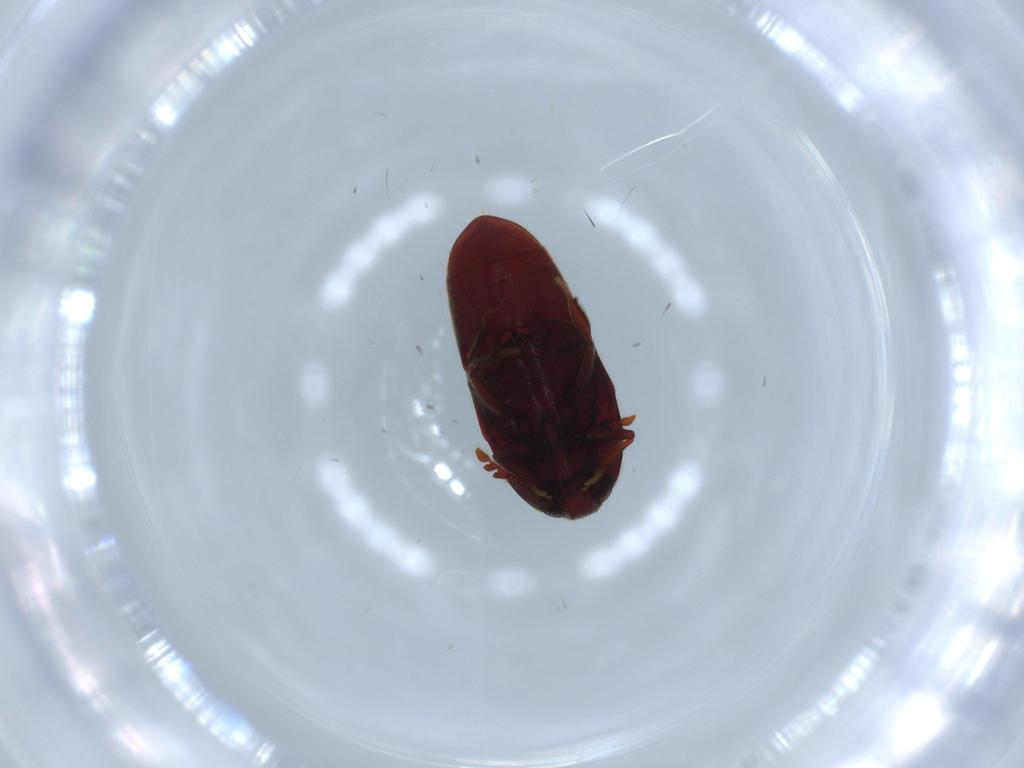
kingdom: Animalia
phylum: Arthropoda
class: Insecta
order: Coleoptera
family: Throscidae
